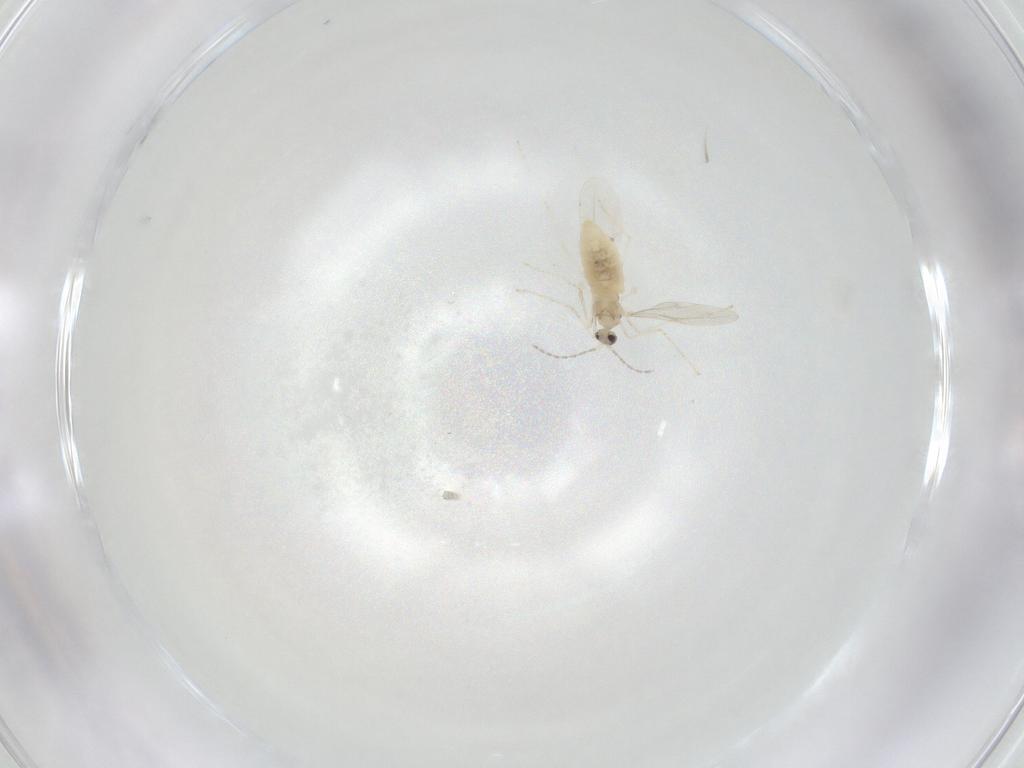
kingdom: Animalia
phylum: Arthropoda
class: Insecta
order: Diptera
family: Cecidomyiidae
